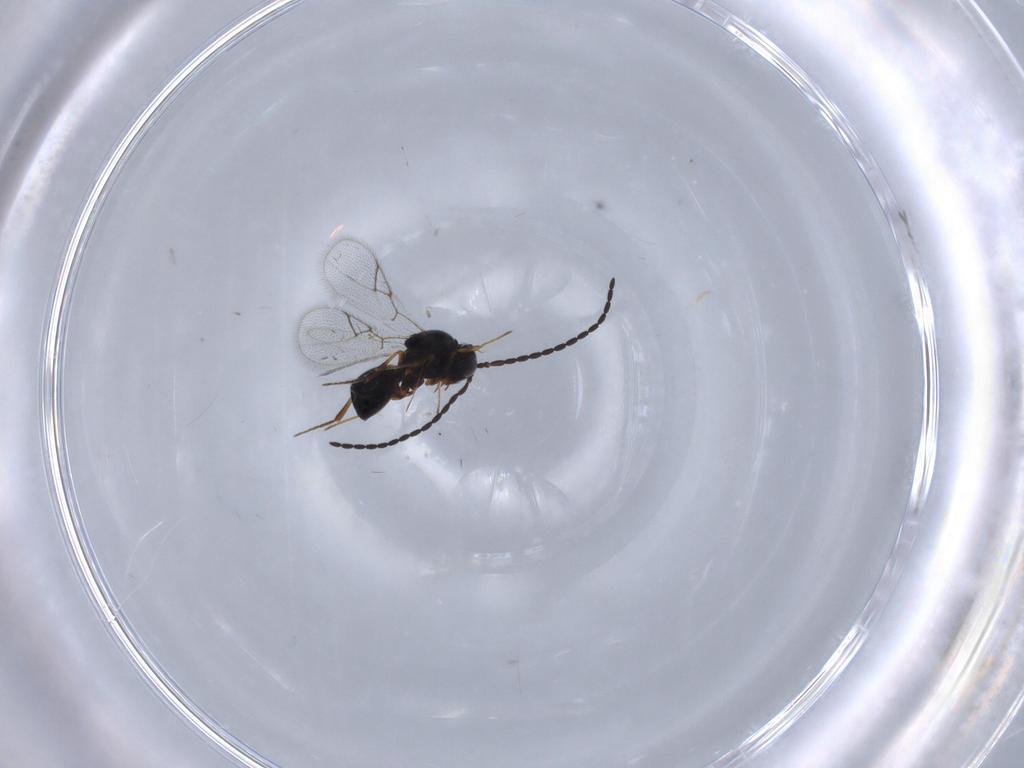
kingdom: Animalia
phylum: Arthropoda
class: Insecta
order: Hymenoptera
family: Figitidae
